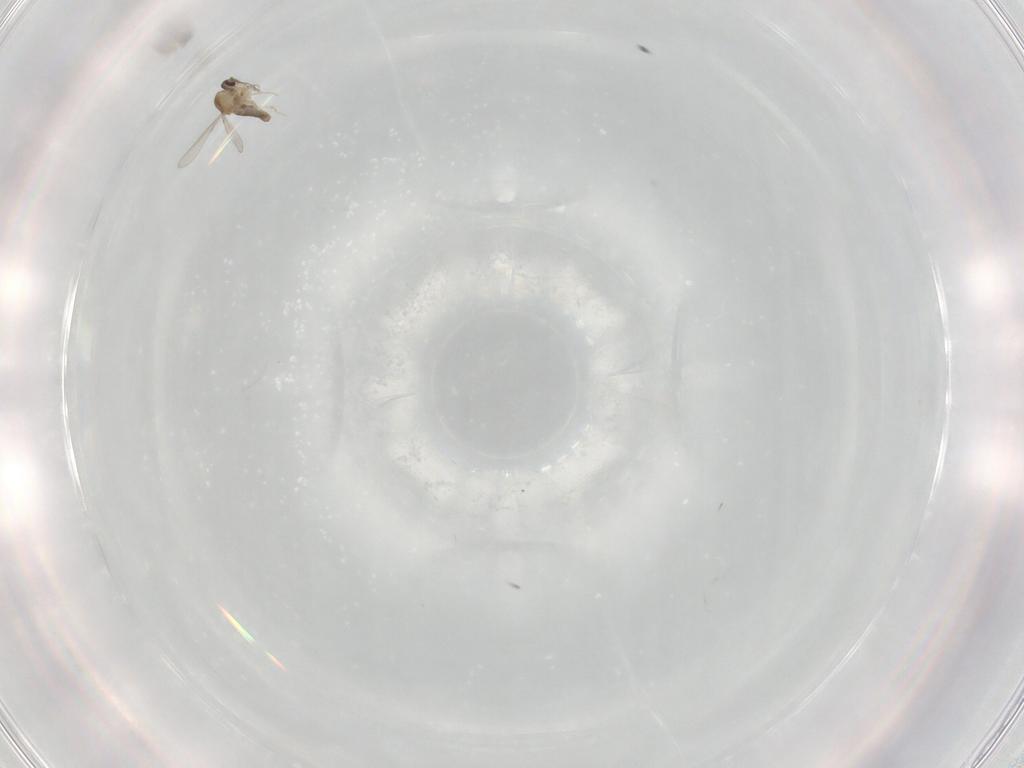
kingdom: Animalia
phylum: Arthropoda
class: Insecta
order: Diptera
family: Ceratopogonidae
